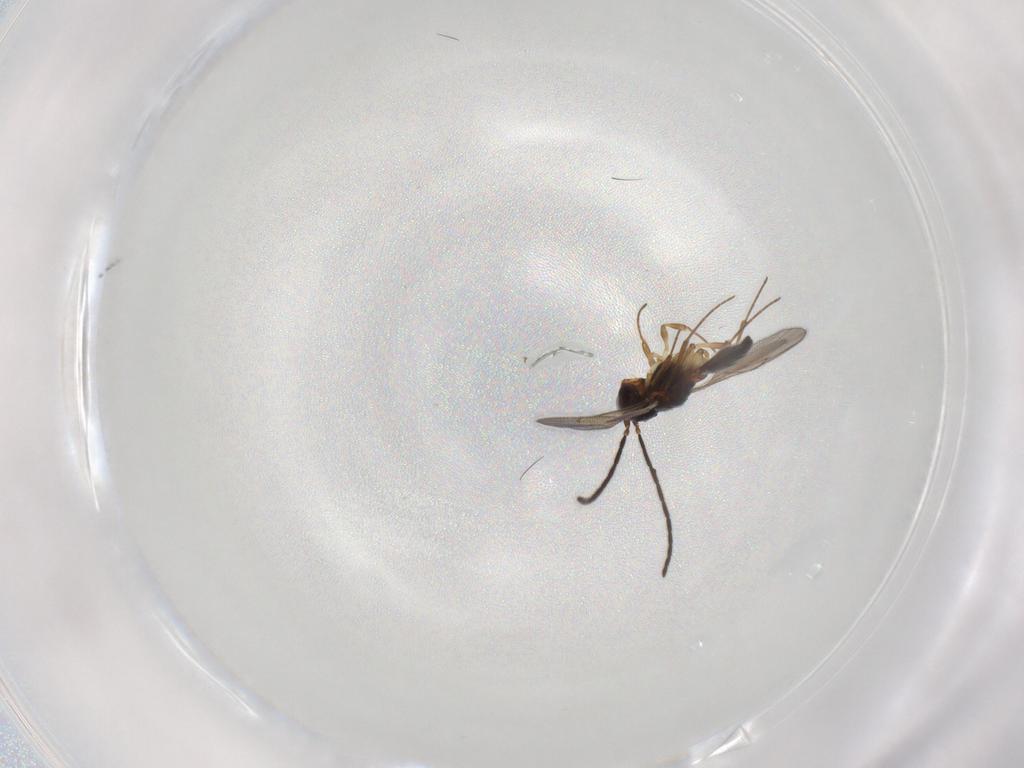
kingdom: Animalia
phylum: Arthropoda
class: Insecta
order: Hymenoptera
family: Scelionidae
